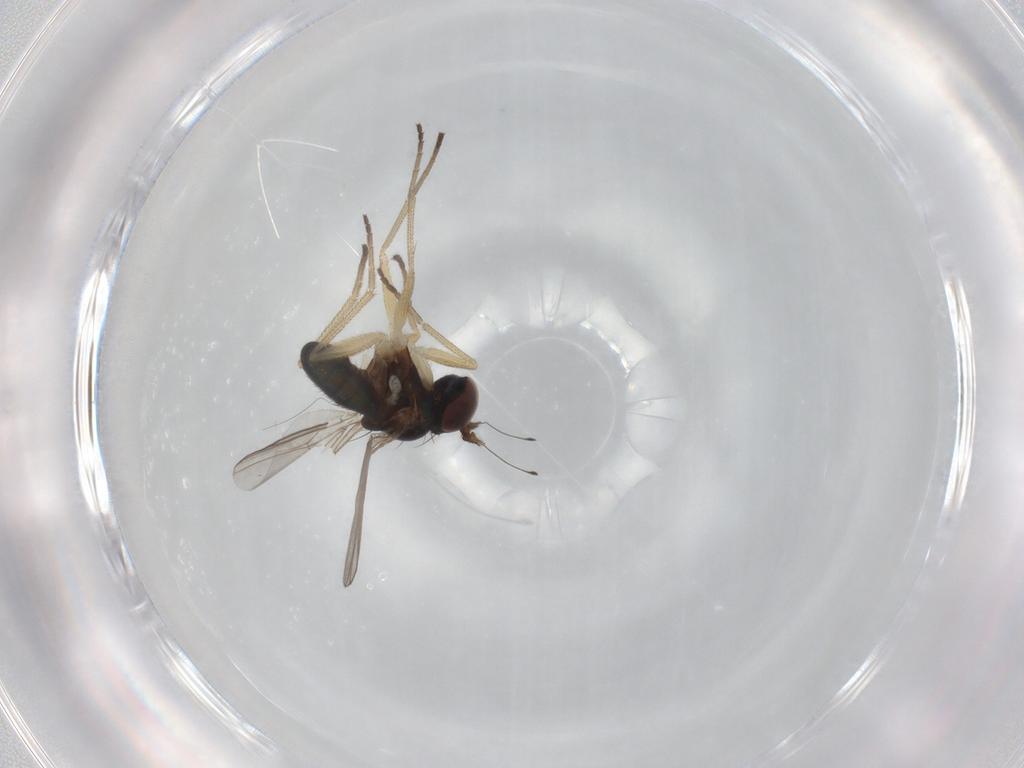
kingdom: Animalia
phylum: Arthropoda
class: Insecta
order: Diptera
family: Dolichopodidae
